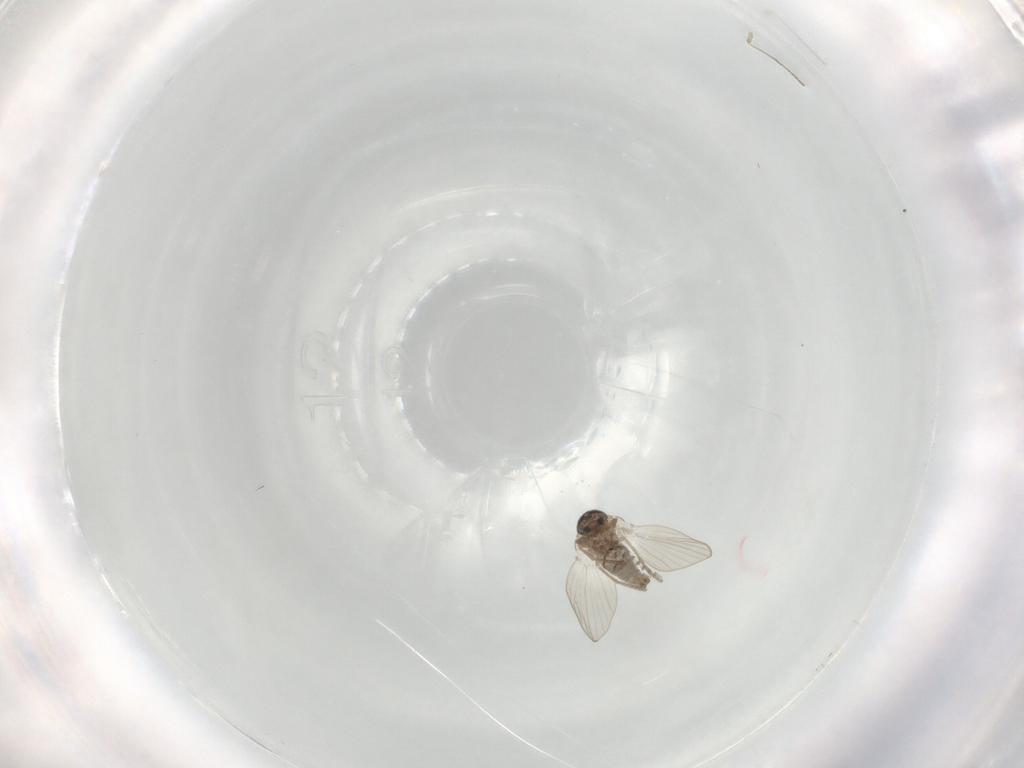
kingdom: Animalia
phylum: Arthropoda
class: Insecta
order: Diptera
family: Psychodidae
